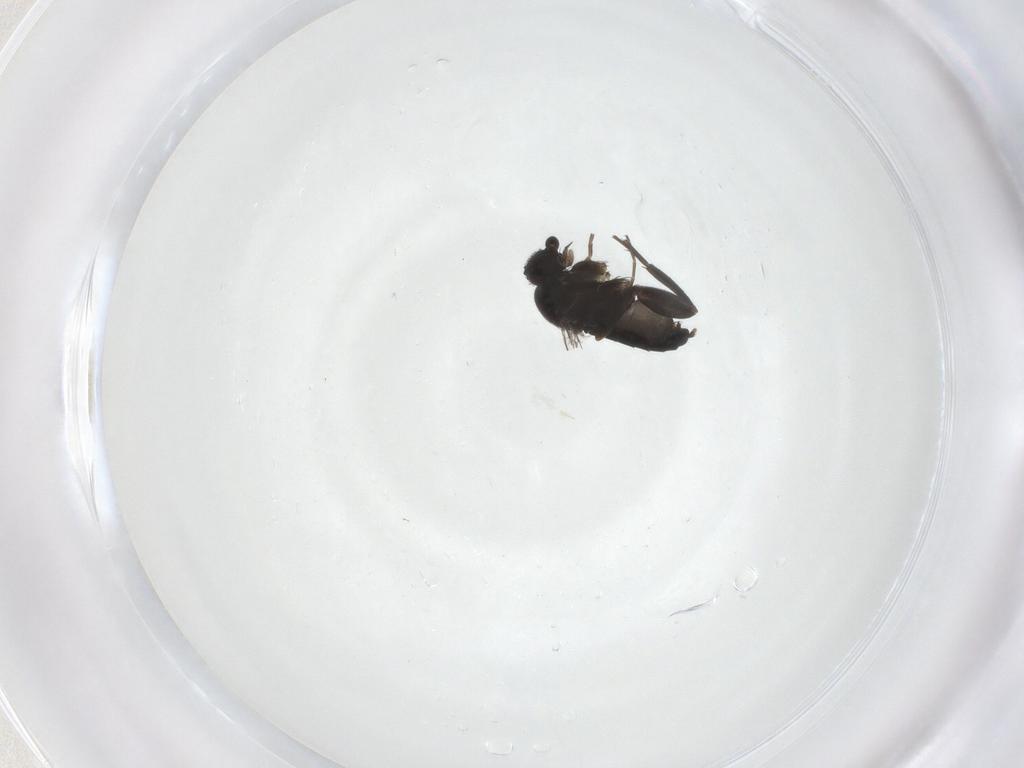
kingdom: Animalia
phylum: Arthropoda
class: Insecta
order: Diptera
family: Phoridae
